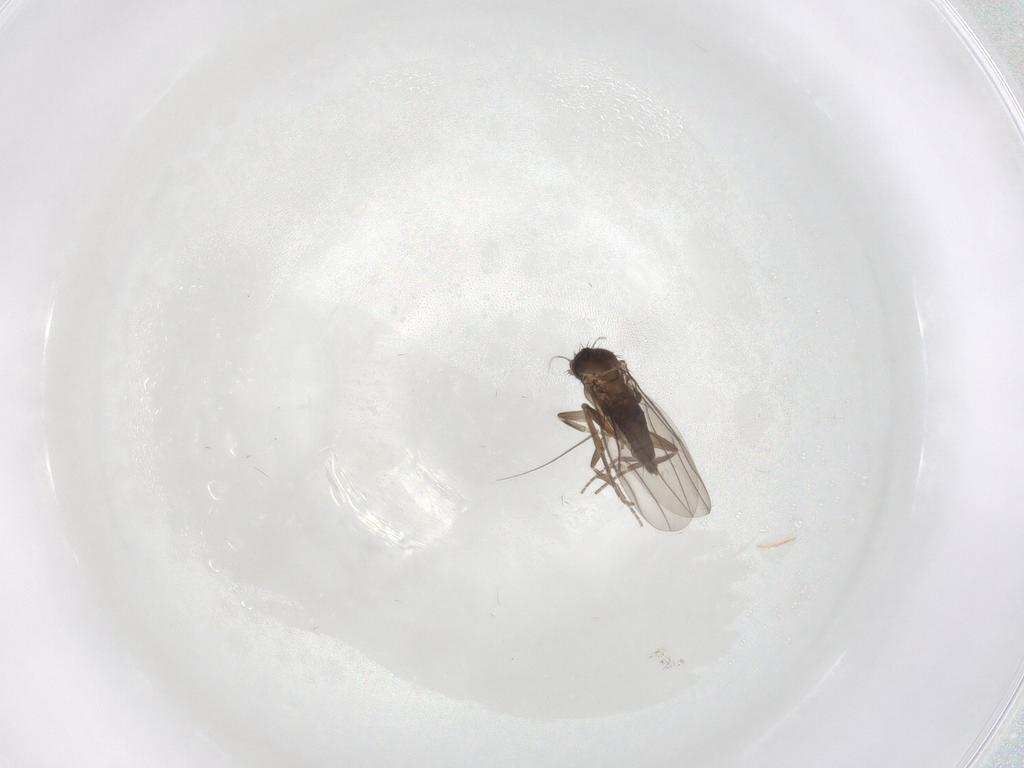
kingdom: Animalia
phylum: Arthropoda
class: Insecta
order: Diptera
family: Phoridae
